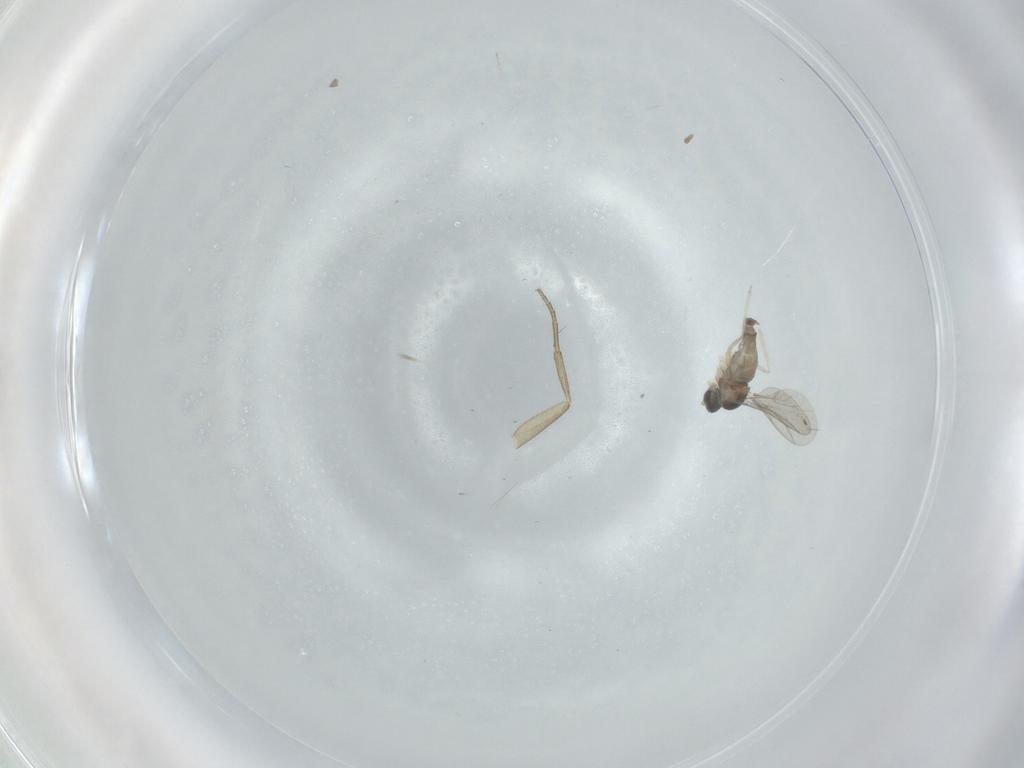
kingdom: Animalia
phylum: Arthropoda
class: Insecta
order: Diptera
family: Phoridae
